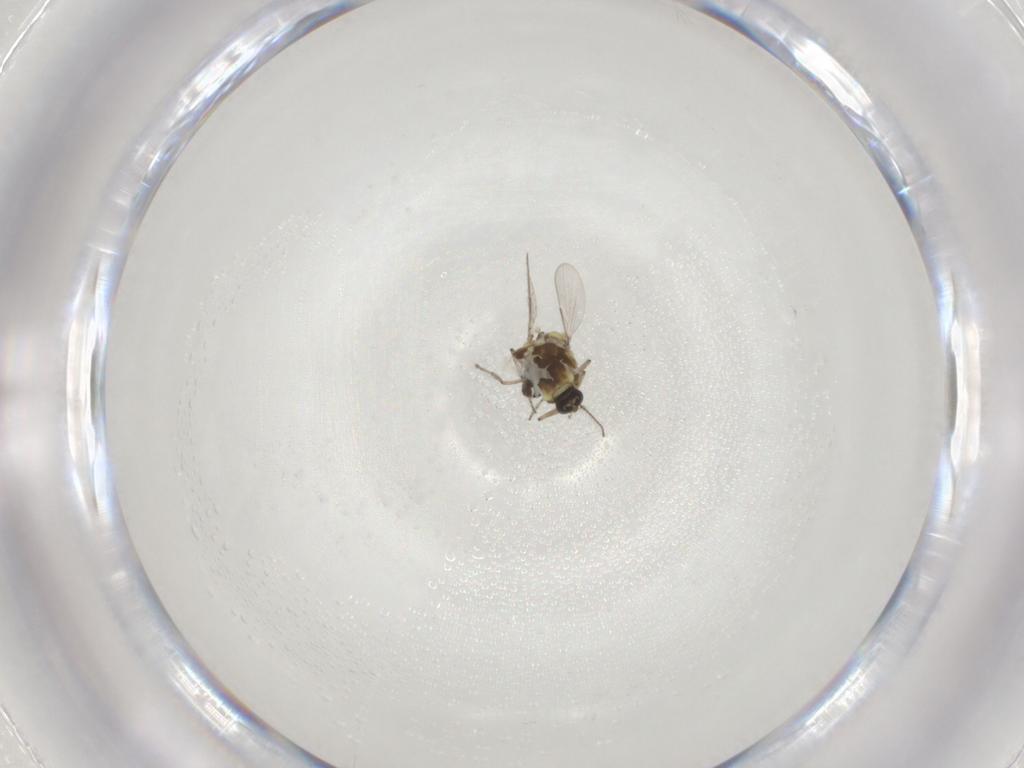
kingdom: Animalia
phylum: Arthropoda
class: Insecta
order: Diptera
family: Ceratopogonidae
